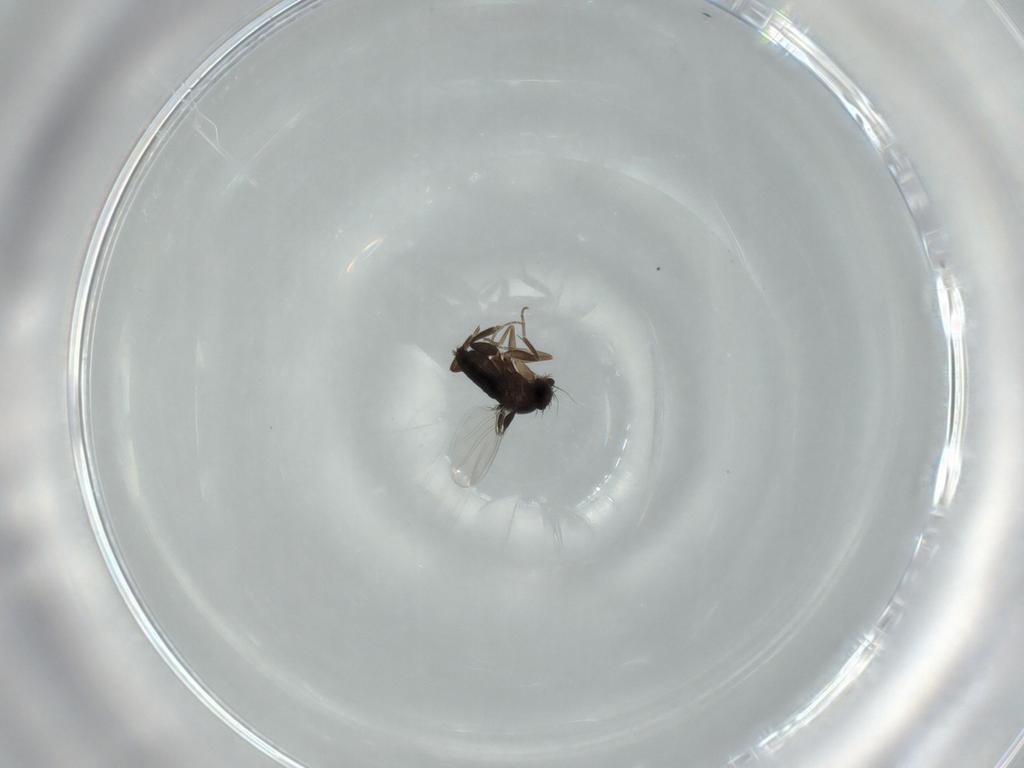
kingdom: Animalia
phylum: Arthropoda
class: Insecta
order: Diptera
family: Phoridae
